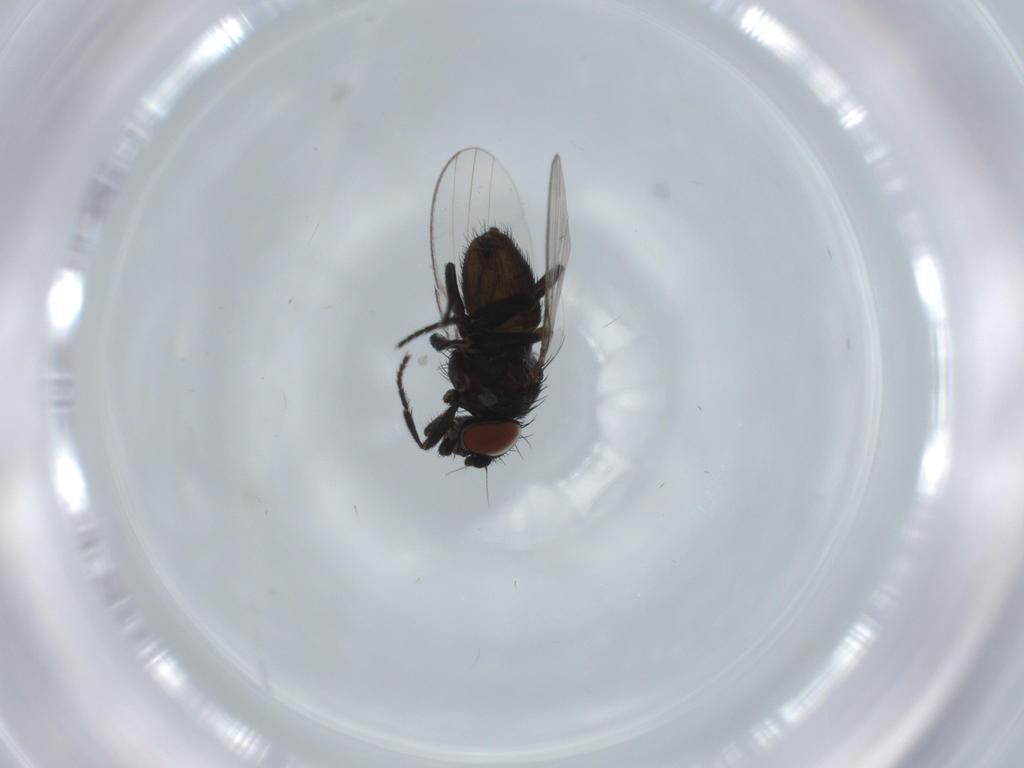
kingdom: Animalia
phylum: Arthropoda
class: Insecta
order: Diptera
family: Milichiidae
